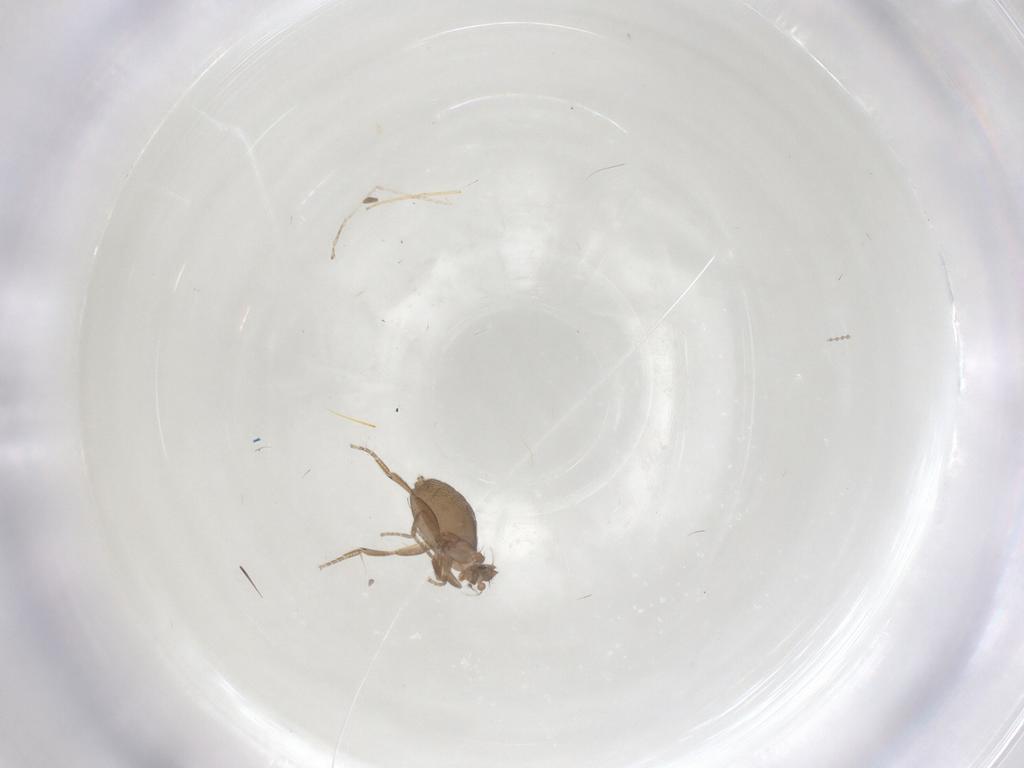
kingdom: Animalia
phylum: Arthropoda
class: Insecta
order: Diptera
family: Phoridae
